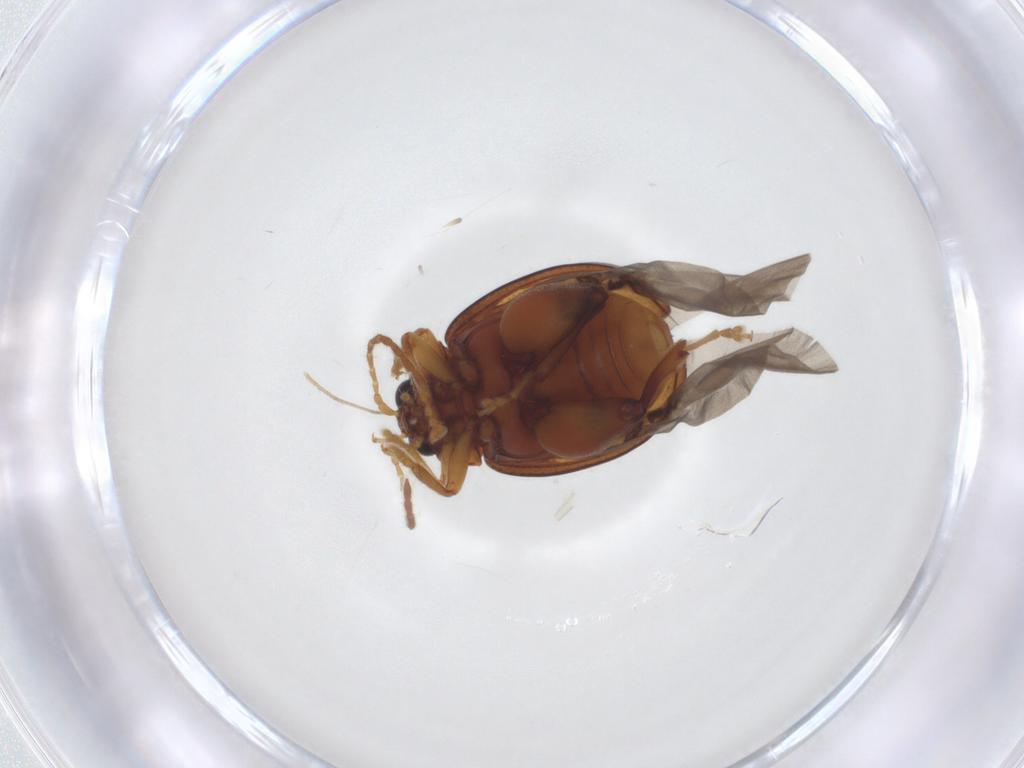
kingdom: Animalia
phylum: Arthropoda
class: Insecta
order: Coleoptera
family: Chrysomelidae
